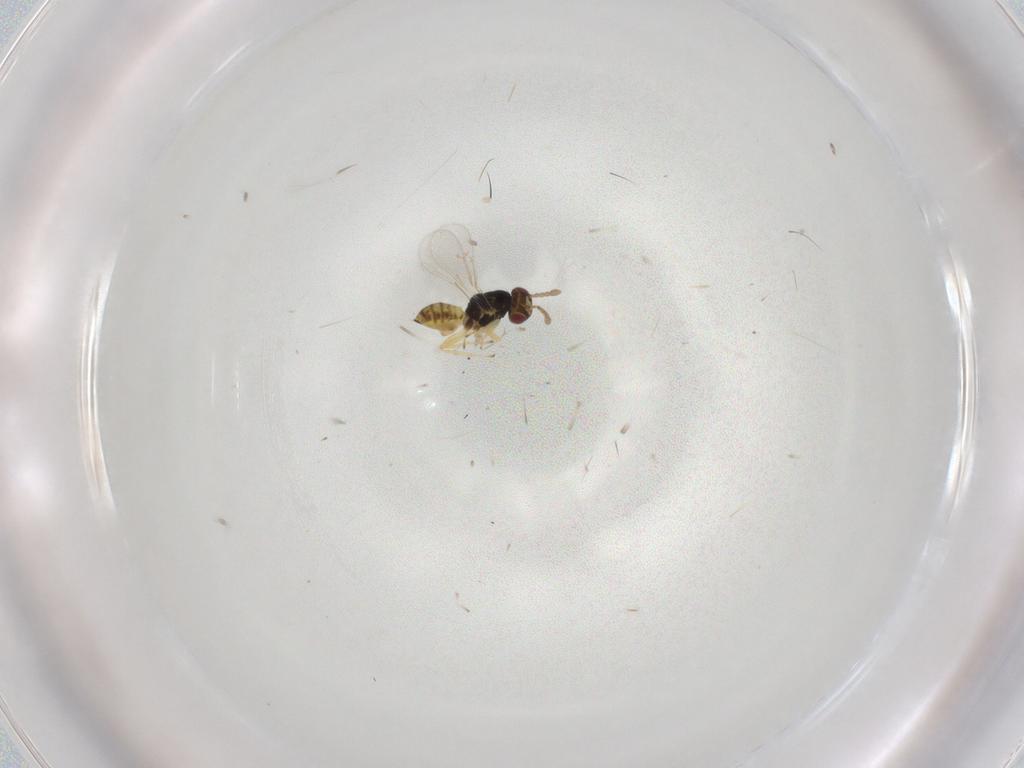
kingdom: Animalia
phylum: Arthropoda
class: Insecta
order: Hymenoptera
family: Eulophidae
